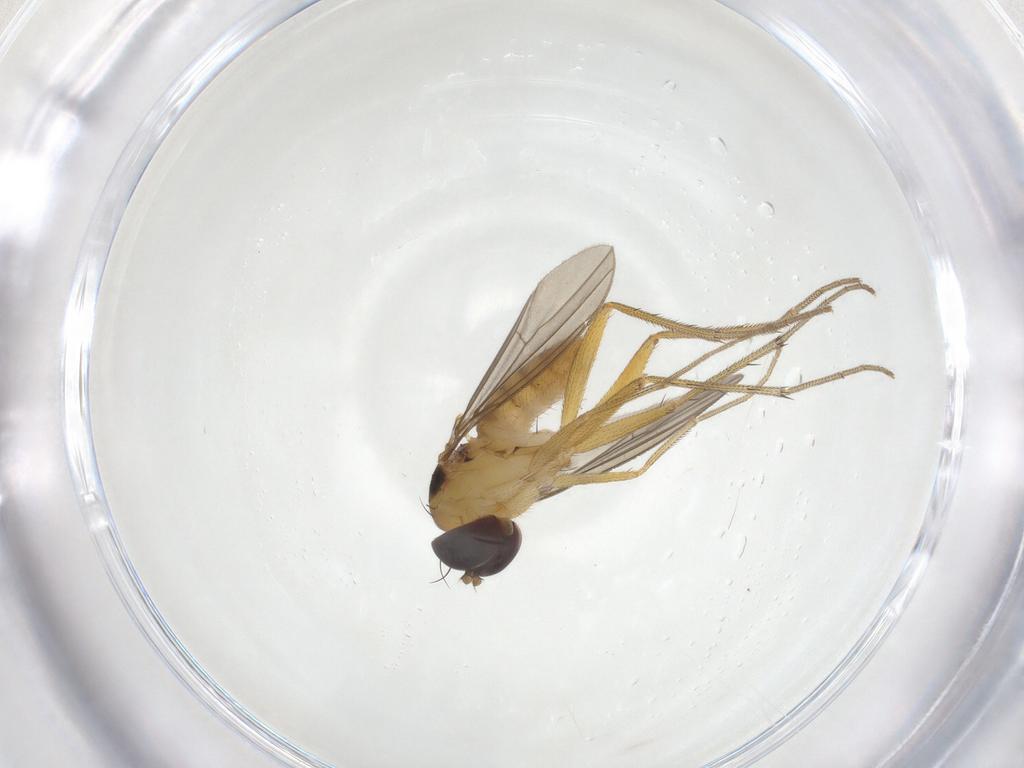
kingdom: Animalia
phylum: Arthropoda
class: Insecta
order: Diptera
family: Dolichopodidae
